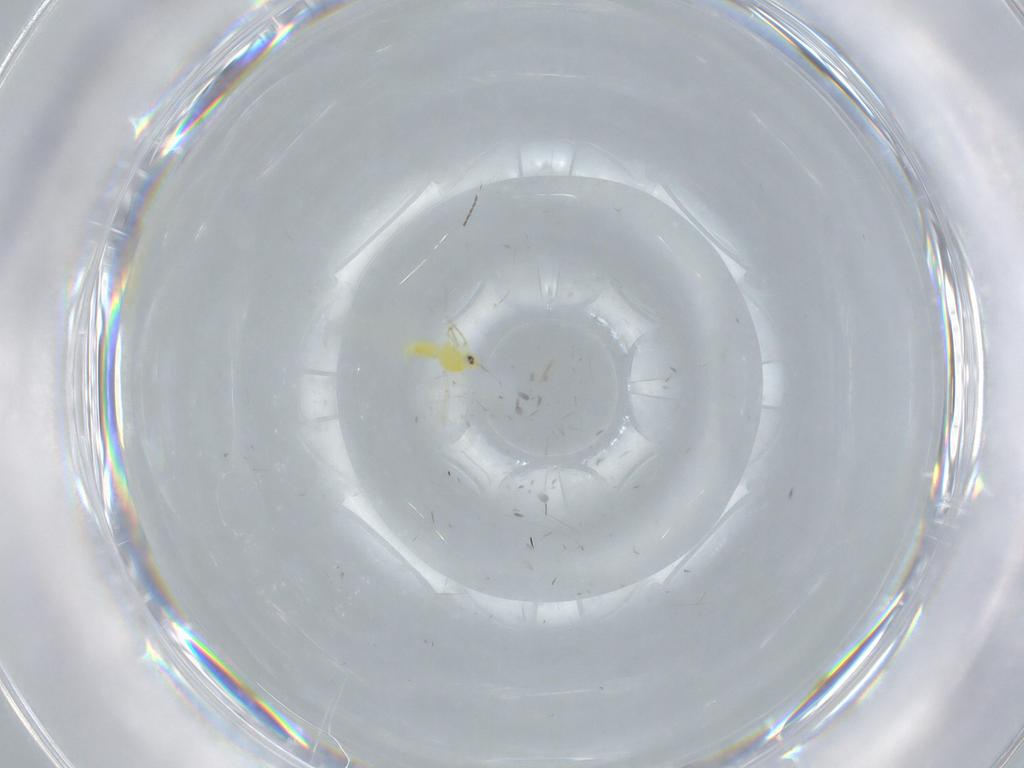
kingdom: Animalia
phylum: Arthropoda
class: Insecta
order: Hemiptera
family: Aleyrodidae
